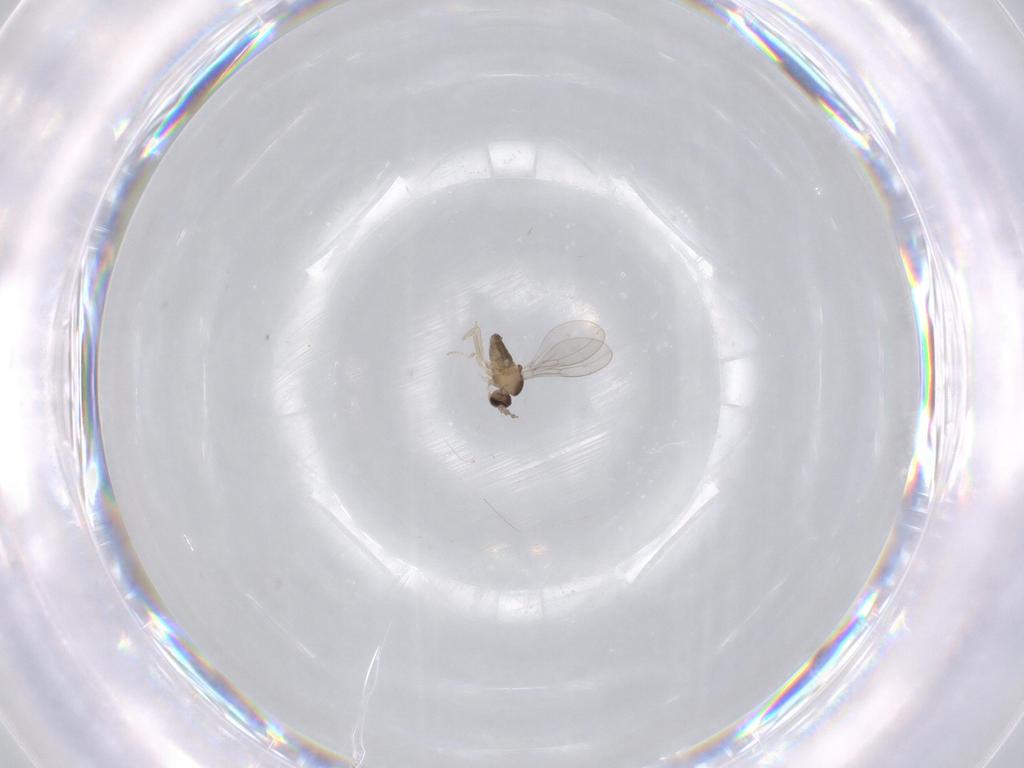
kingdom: Animalia
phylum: Arthropoda
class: Insecta
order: Diptera
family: Cecidomyiidae
